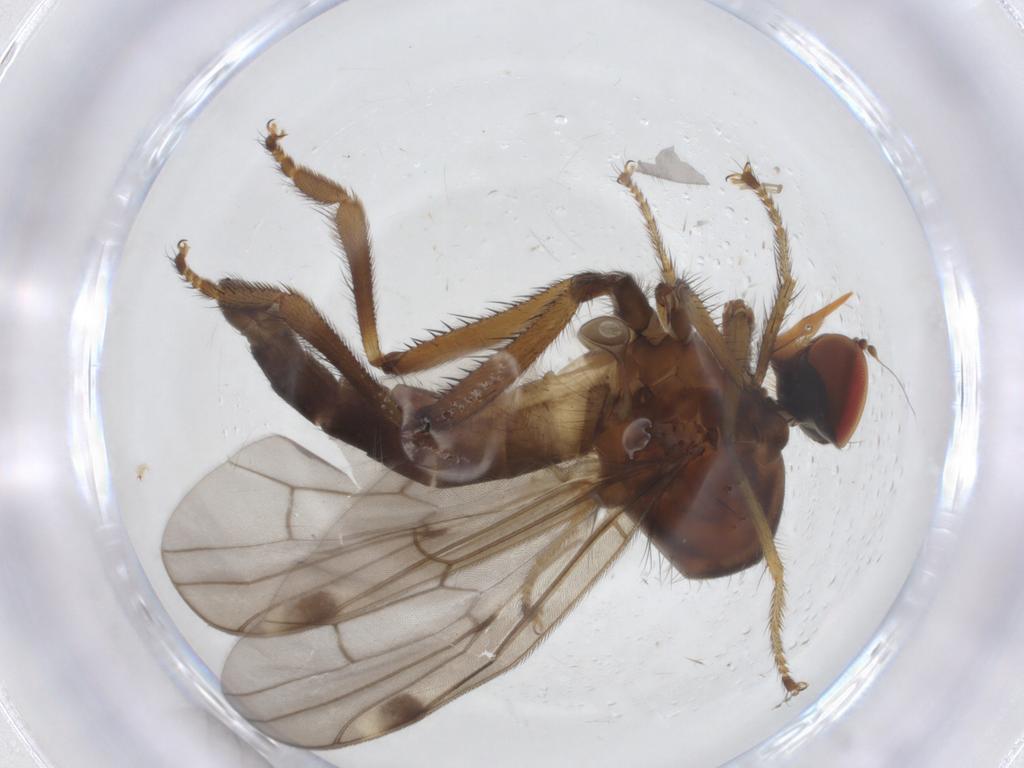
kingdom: Animalia
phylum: Arthropoda
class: Insecta
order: Diptera
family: Hybotidae
